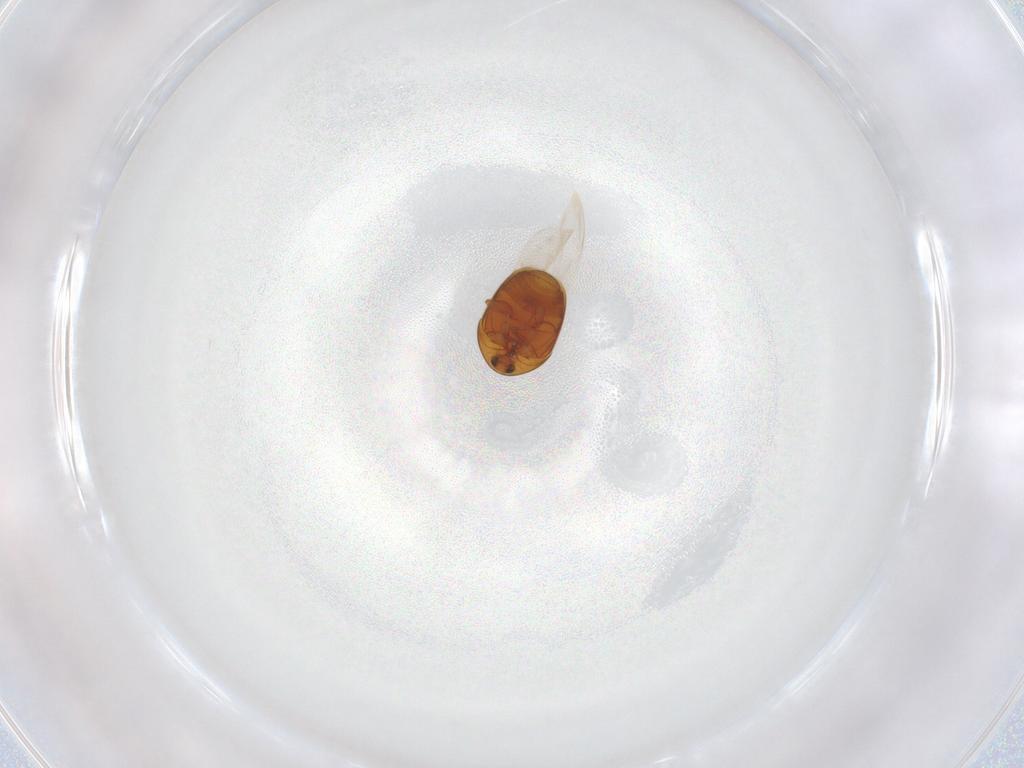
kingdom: Animalia
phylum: Arthropoda
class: Insecta
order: Coleoptera
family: Corylophidae
